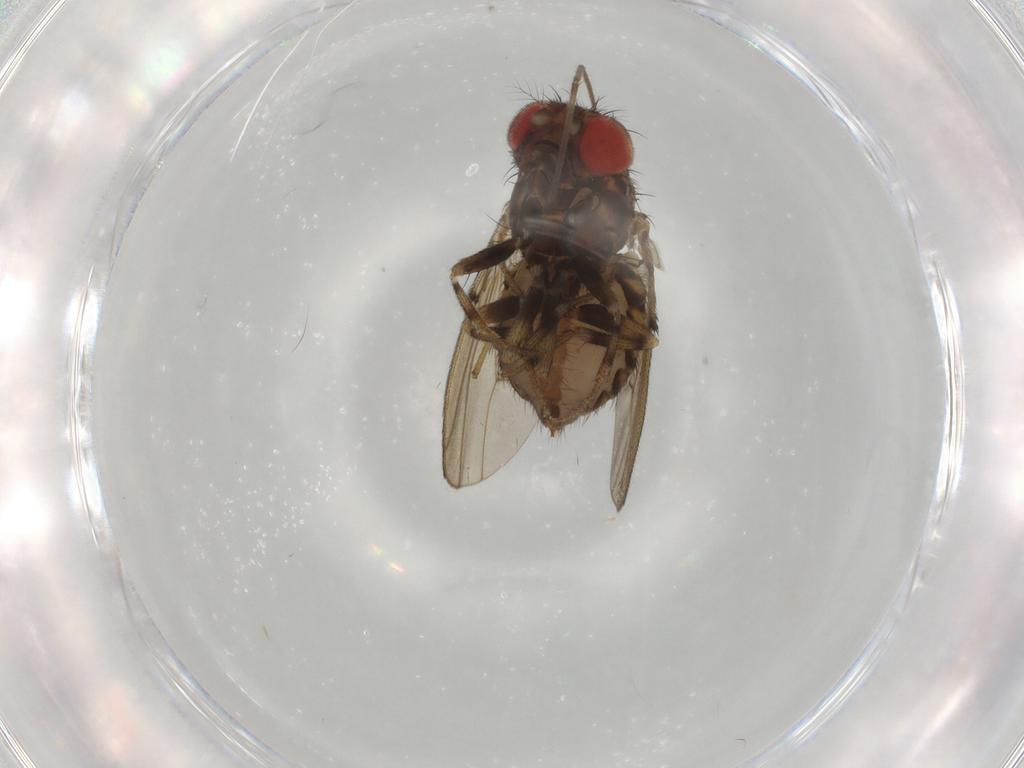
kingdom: Animalia
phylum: Arthropoda
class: Insecta
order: Diptera
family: Drosophilidae
